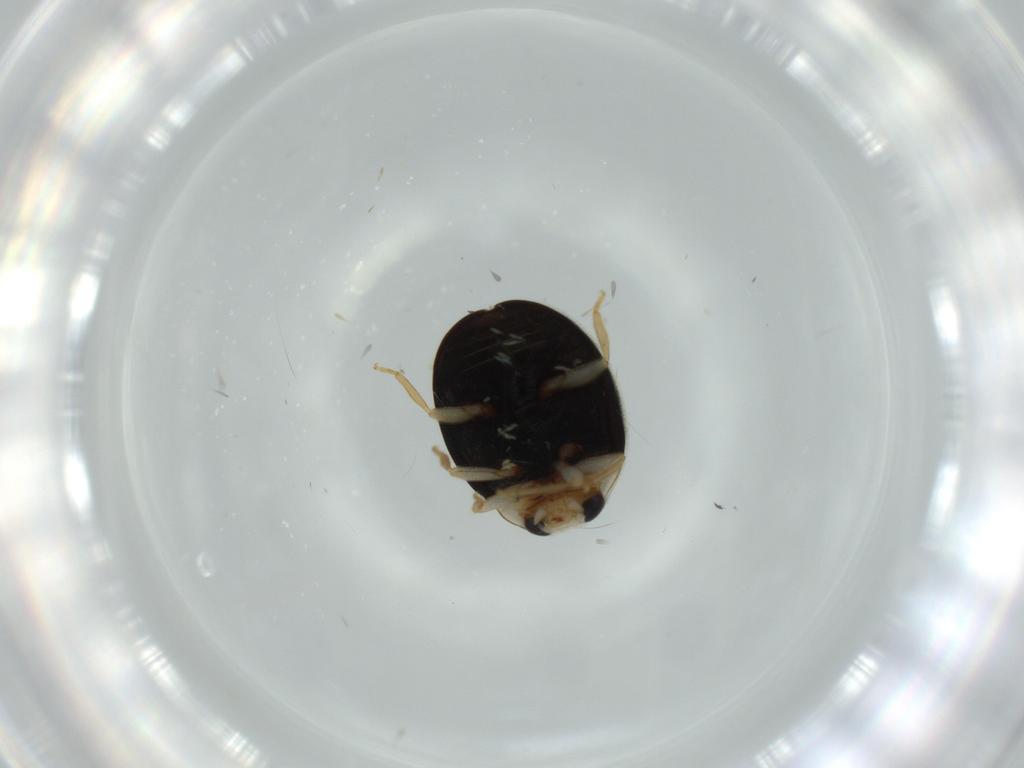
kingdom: Animalia
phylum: Arthropoda
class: Insecta
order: Coleoptera
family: Coccinellidae
